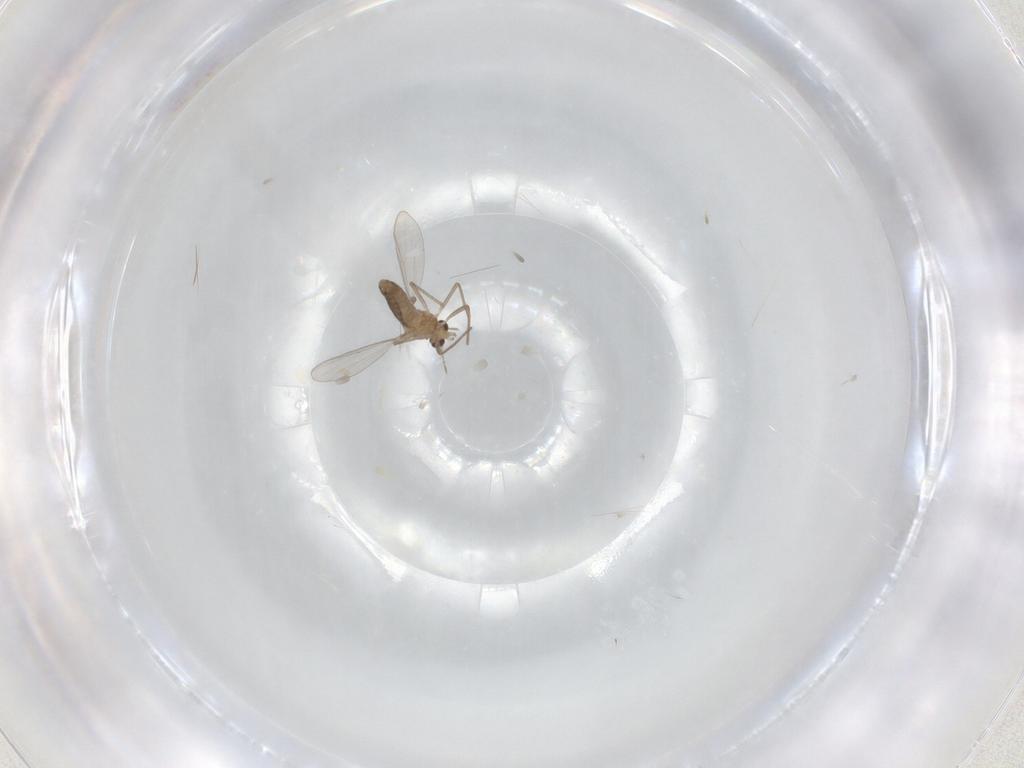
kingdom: Animalia
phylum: Arthropoda
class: Insecta
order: Diptera
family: Chironomidae
